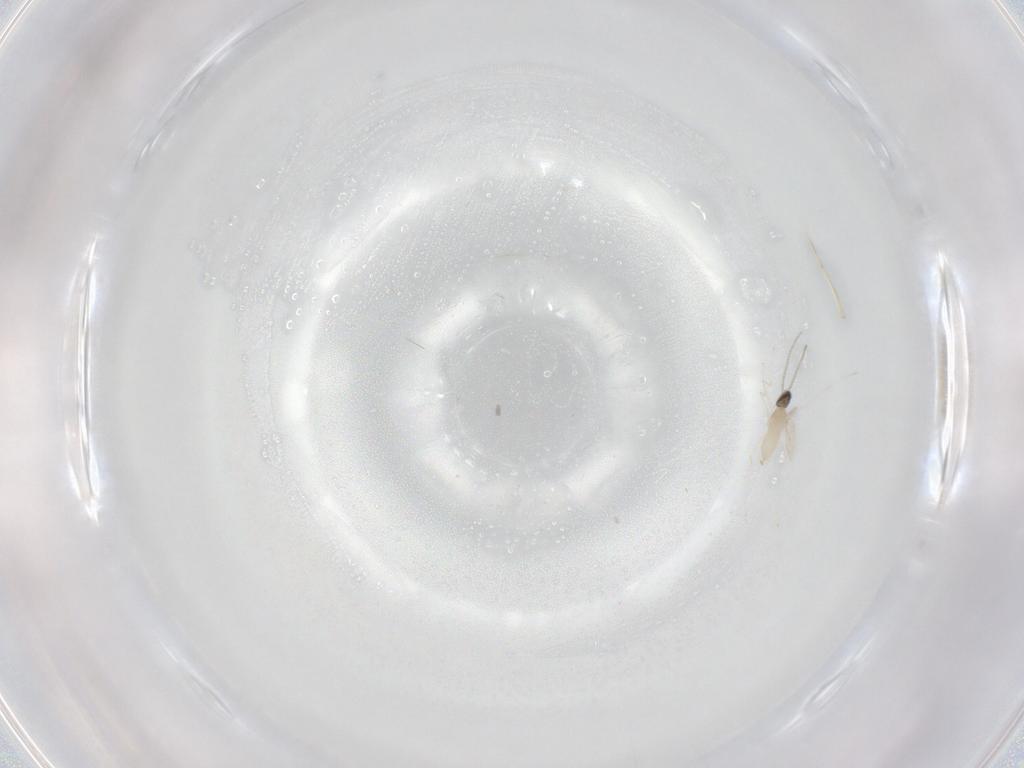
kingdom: Animalia
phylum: Arthropoda
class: Insecta
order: Diptera
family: Cecidomyiidae
